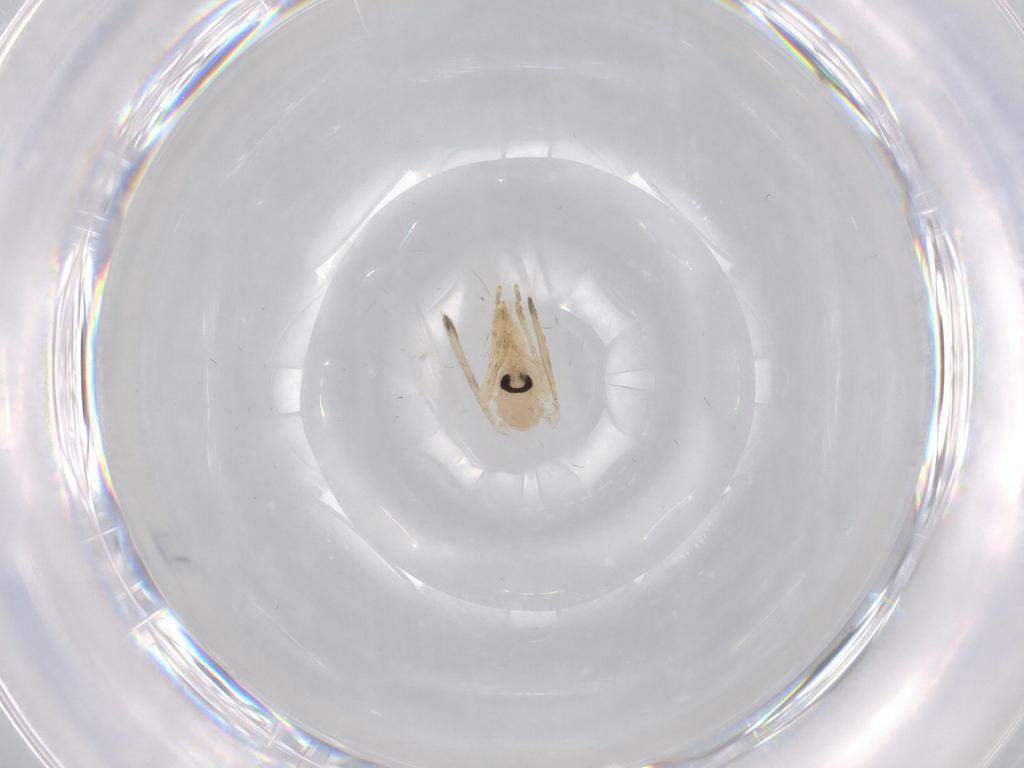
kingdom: Animalia
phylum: Arthropoda
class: Insecta
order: Diptera
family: Psychodidae
